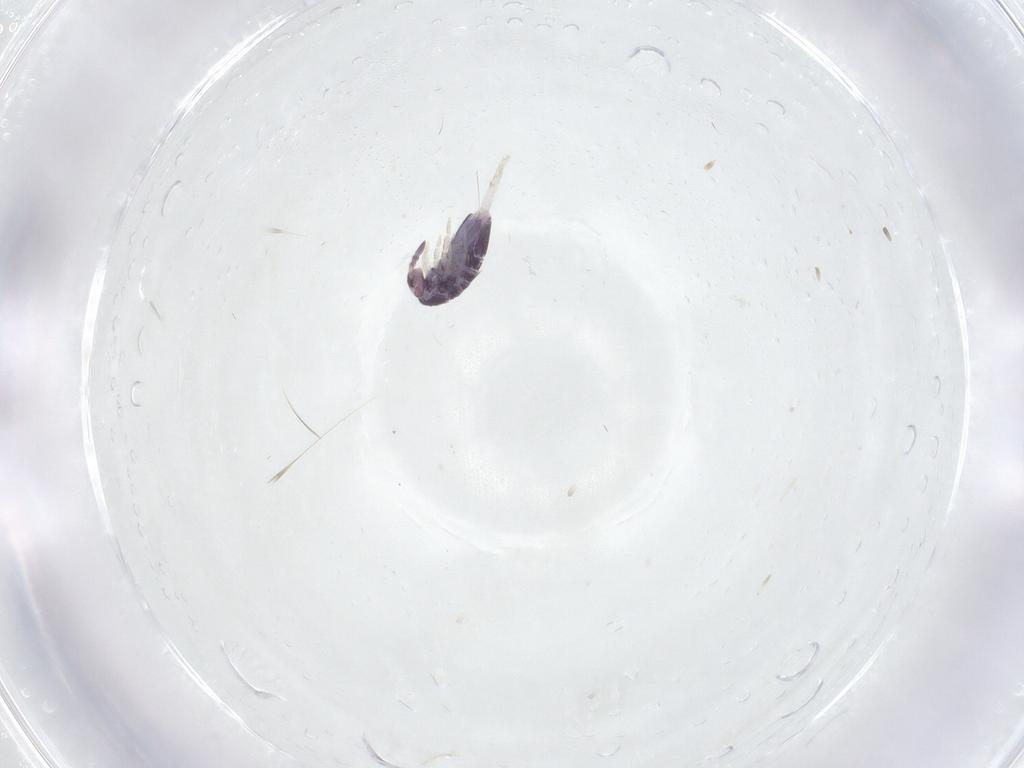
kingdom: Animalia
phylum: Arthropoda
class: Collembola
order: Entomobryomorpha
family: Entomobryidae
